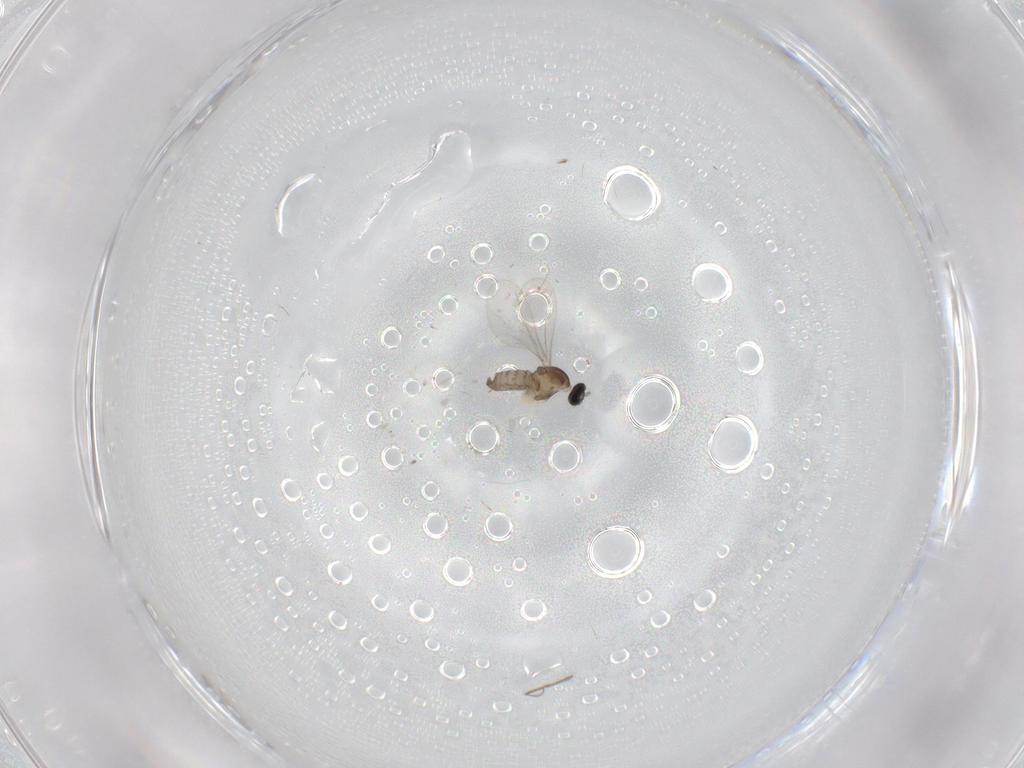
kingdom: Animalia
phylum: Arthropoda
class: Insecta
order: Diptera
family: Cecidomyiidae
